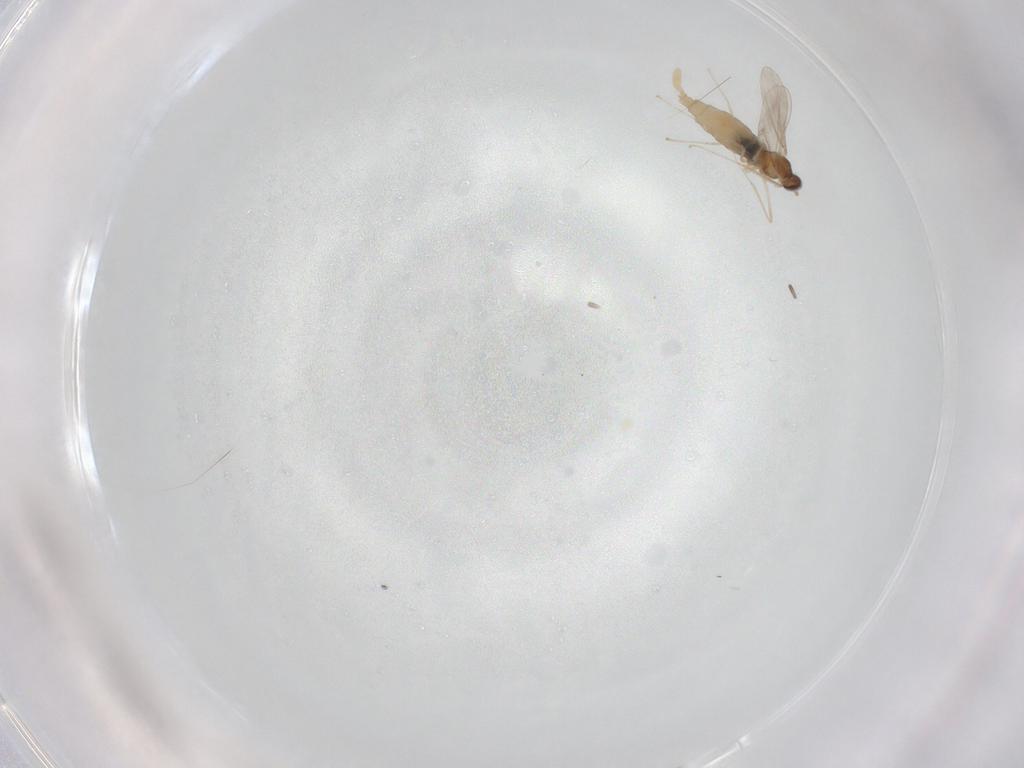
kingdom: Animalia
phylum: Arthropoda
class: Insecta
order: Diptera
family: Cecidomyiidae
